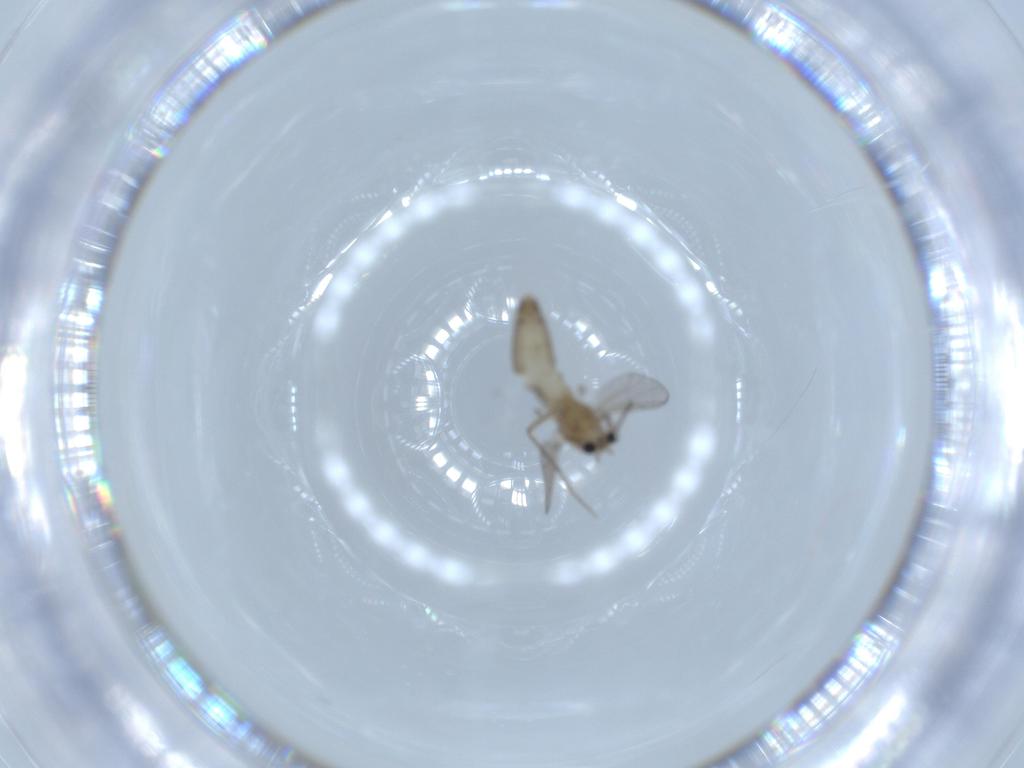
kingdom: Animalia
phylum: Arthropoda
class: Insecta
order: Diptera
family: Chironomidae
